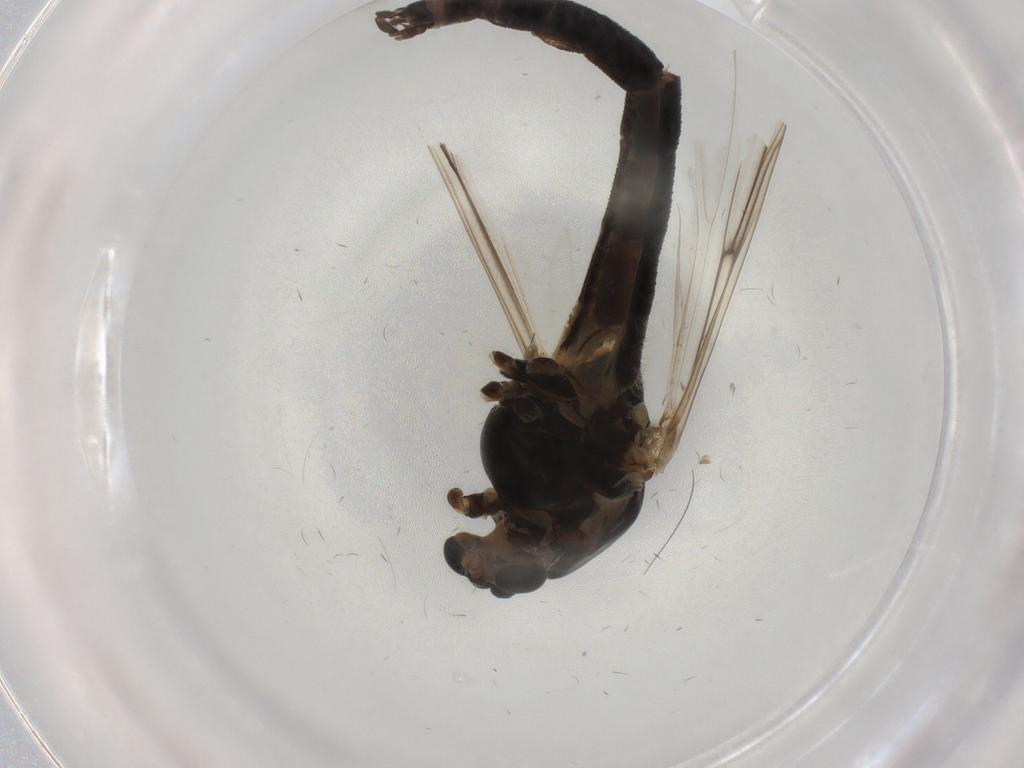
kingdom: Animalia
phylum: Arthropoda
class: Insecta
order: Diptera
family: Chironomidae
